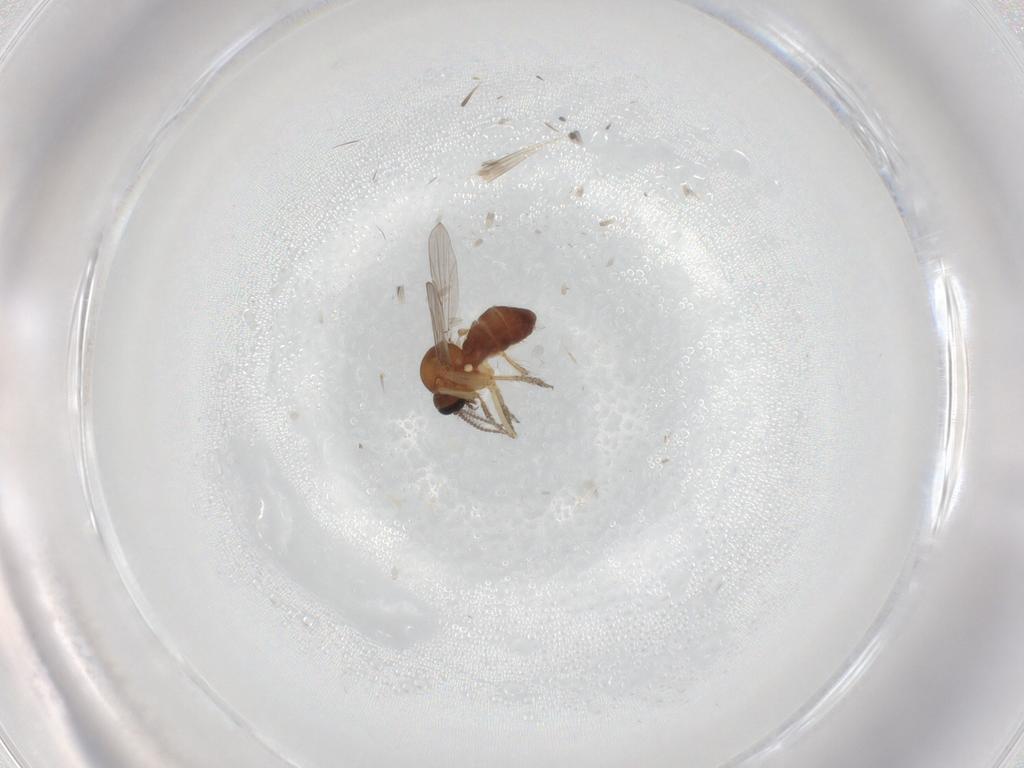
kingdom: Animalia
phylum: Arthropoda
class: Insecta
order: Diptera
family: Ceratopogonidae
